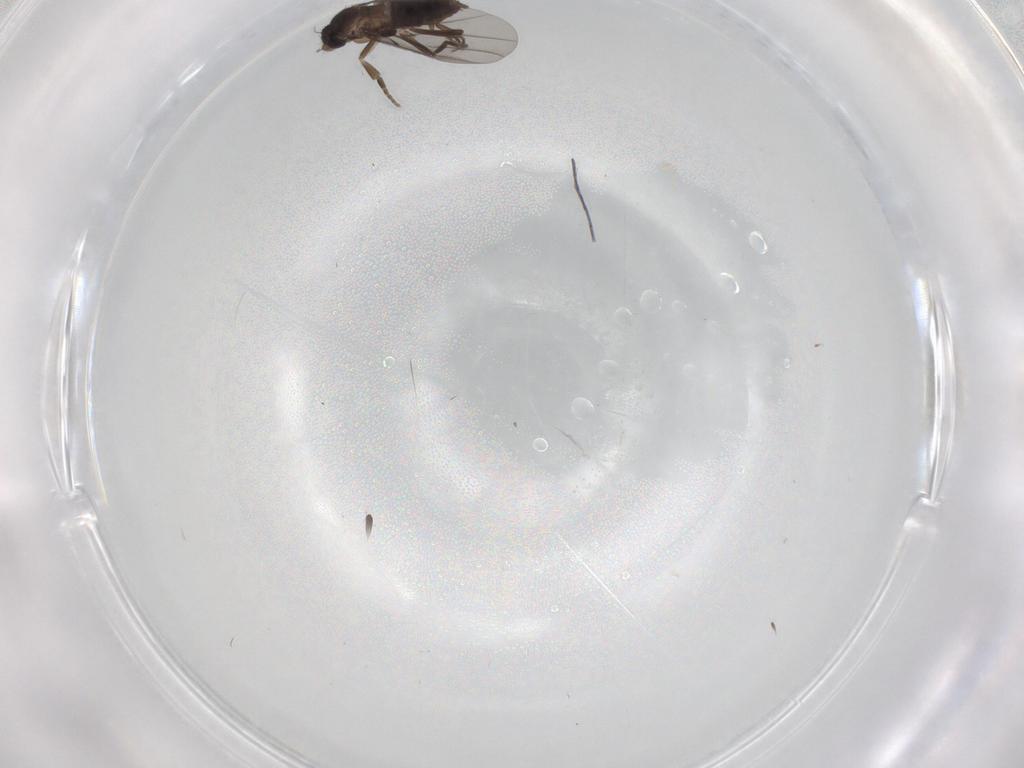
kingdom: Animalia
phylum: Arthropoda
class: Insecta
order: Diptera
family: Phoridae
